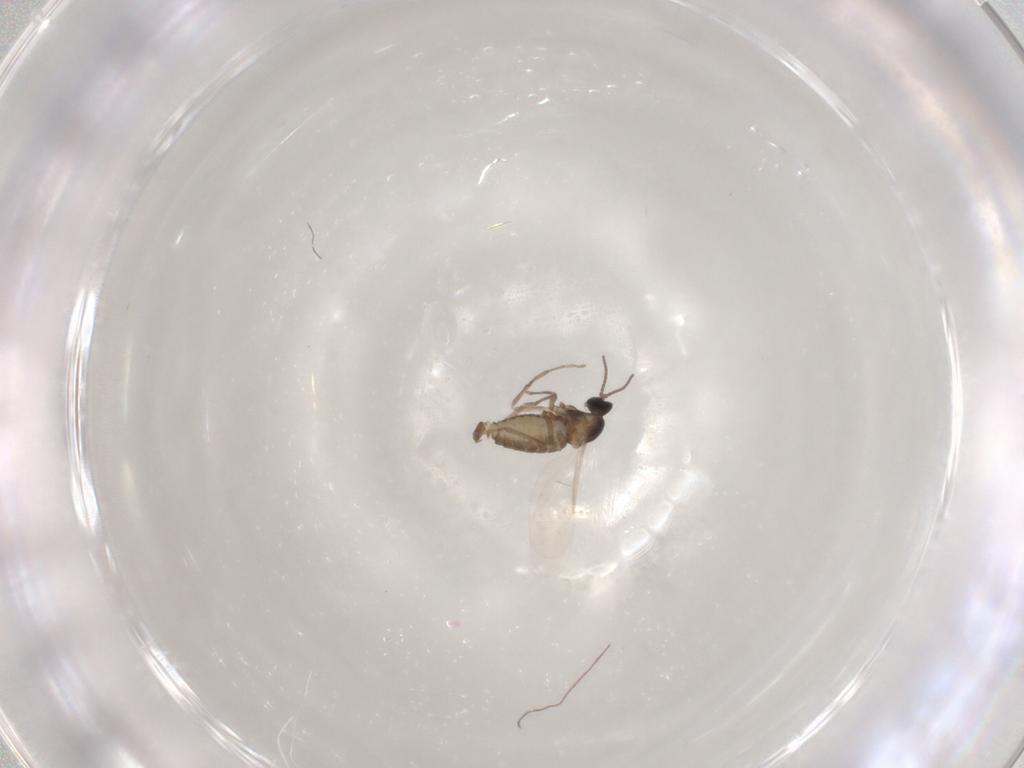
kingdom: Animalia
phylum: Arthropoda
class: Insecta
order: Diptera
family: Cecidomyiidae
